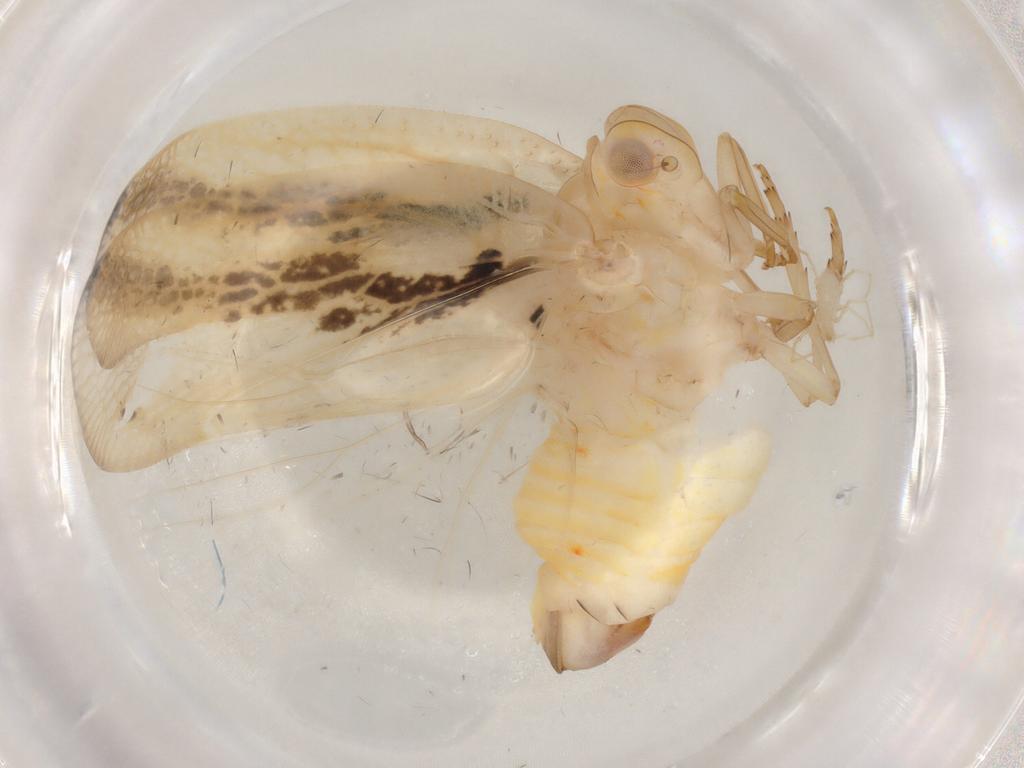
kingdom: Animalia
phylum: Arthropoda
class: Insecta
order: Hemiptera
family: Flatidae
